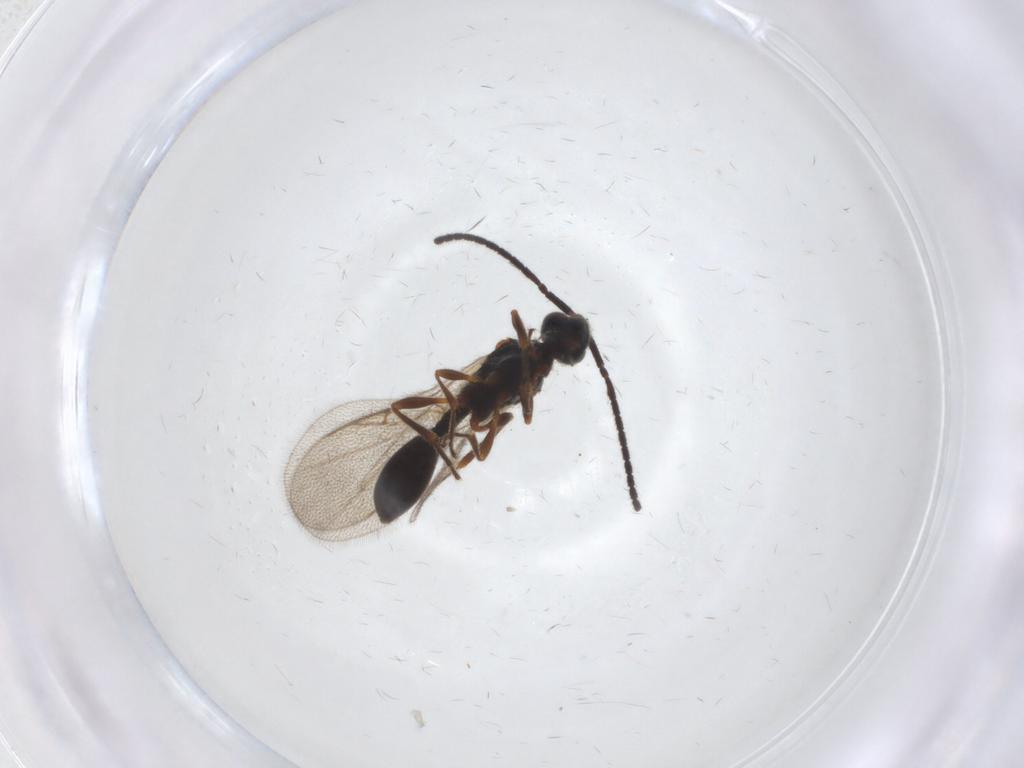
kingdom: Animalia
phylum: Arthropoda
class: Insecta
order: Hymenoptera
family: Diapriidae
